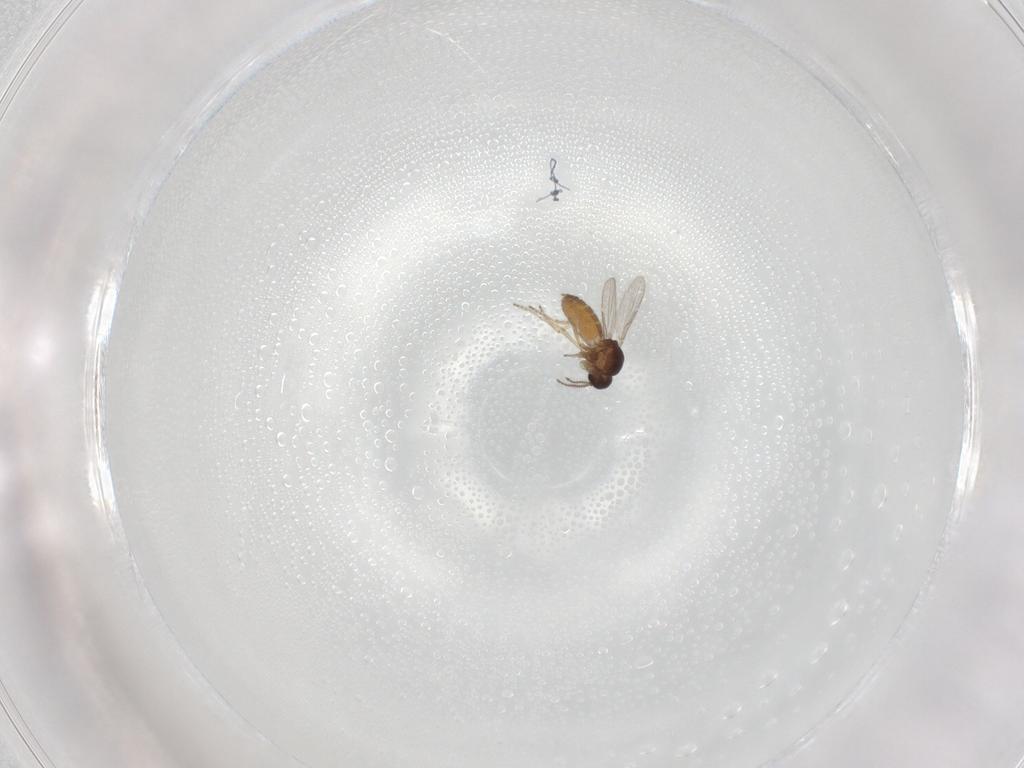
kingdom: Animalia
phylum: Arthropoda
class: Insecta
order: Diptera
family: Ceratopogonidae
